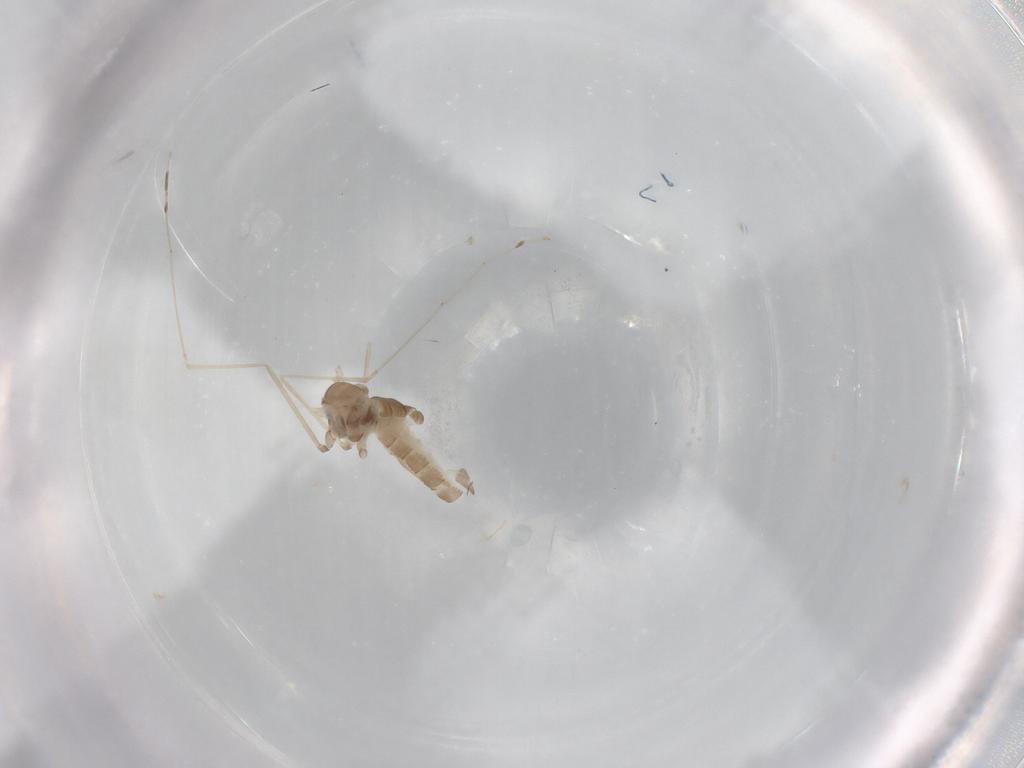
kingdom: Animalia
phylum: Arthropoda
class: Insecta
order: Diptera
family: Cecidomyiidae
